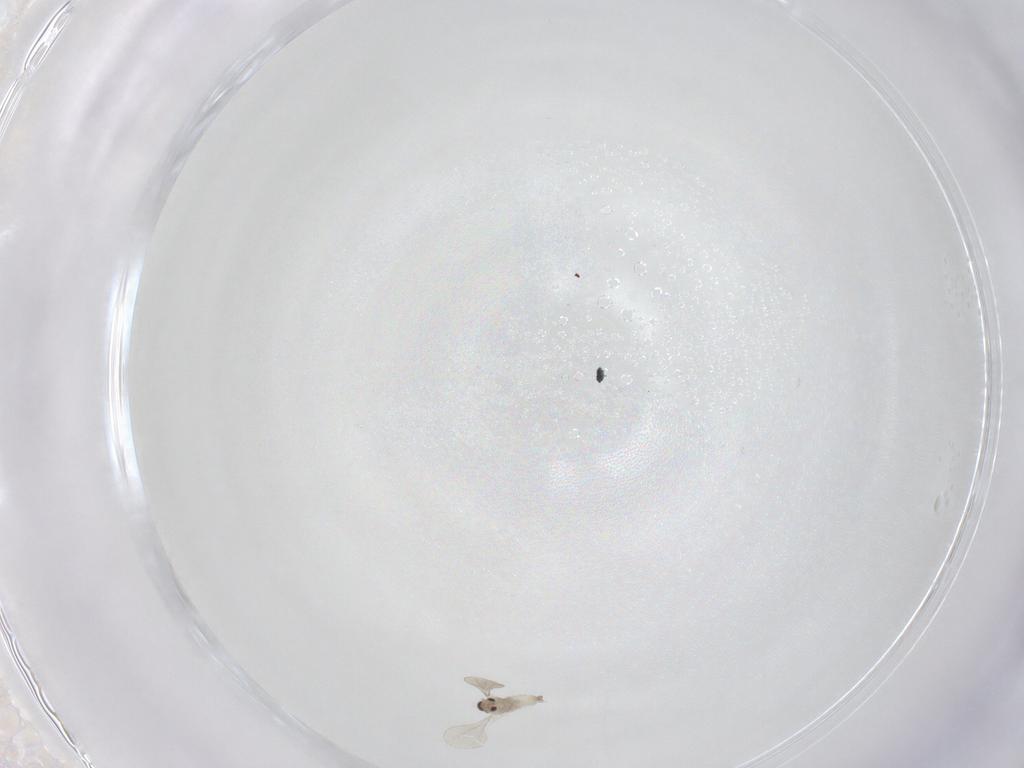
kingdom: Animalia
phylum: Arthropoda
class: Insecta
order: Diptera
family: Cecidomyiidae
